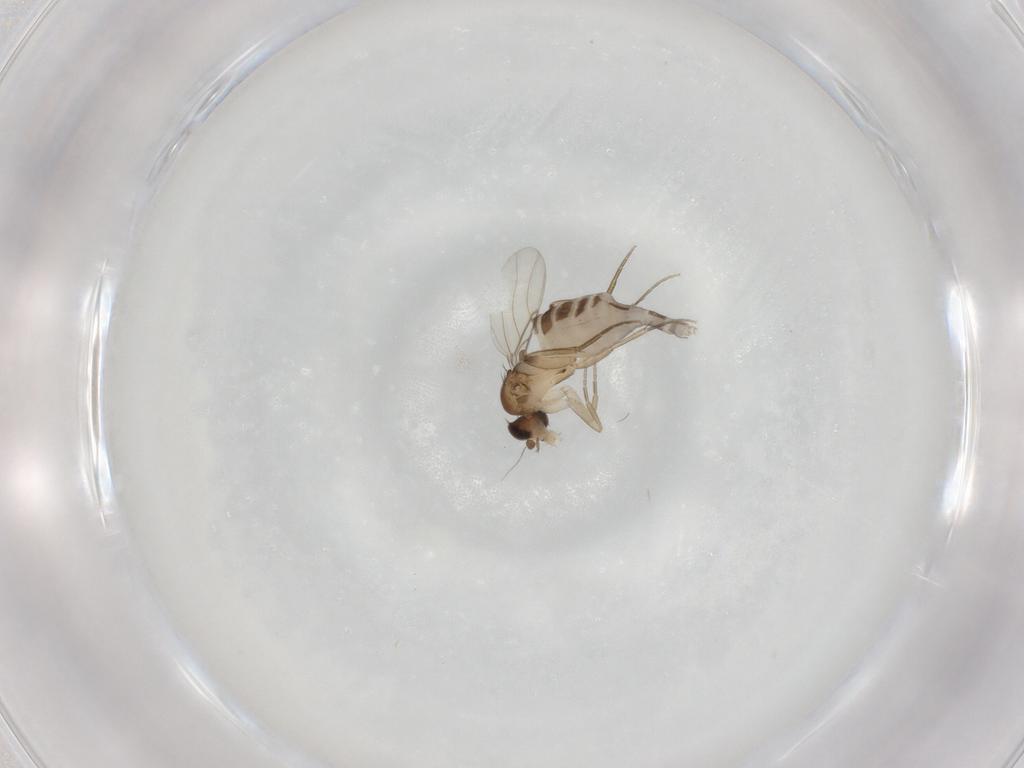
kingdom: Animalia
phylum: Arthropoda
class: Insecta
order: Diptera
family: Phoridae
